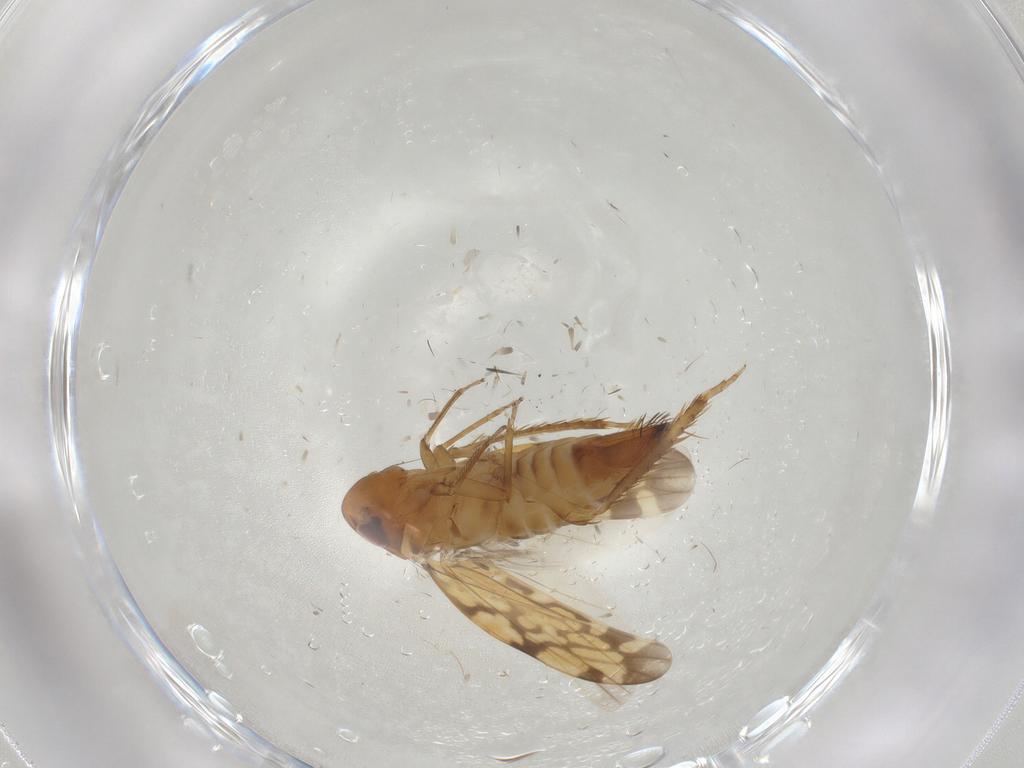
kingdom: Animalia
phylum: Arthropoda
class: Insecta
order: Hemiptera
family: Cicadellidae
